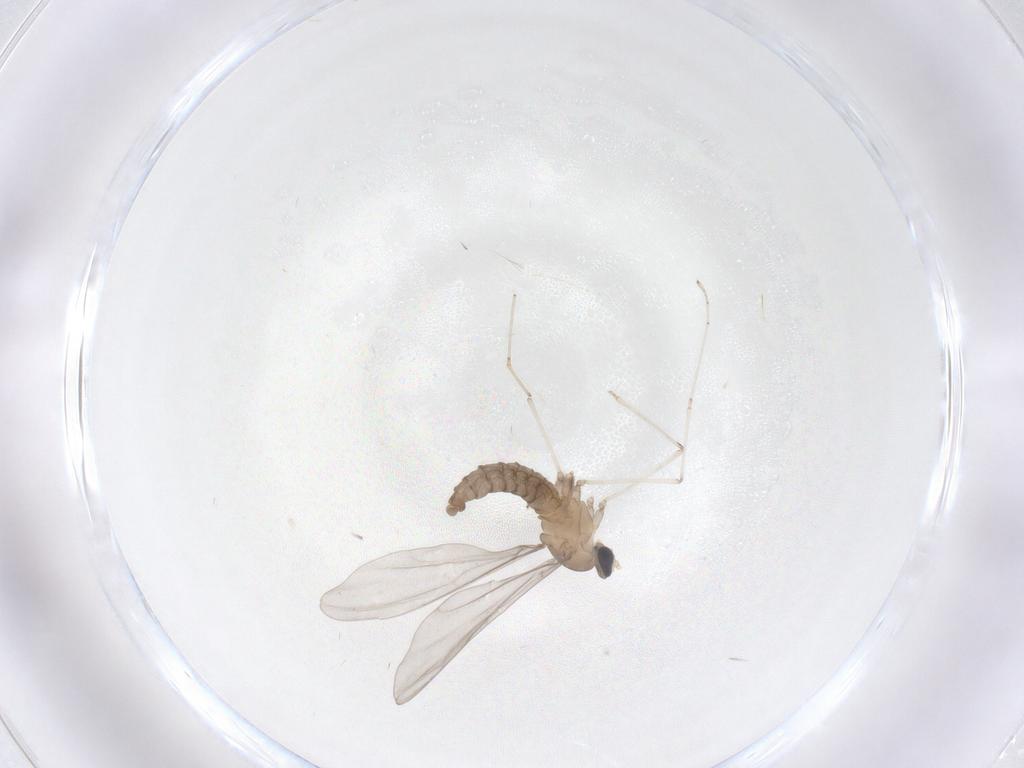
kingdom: Animalia
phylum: Arthropoda
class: Insecta
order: Diptera
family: Cecidomyiidae
